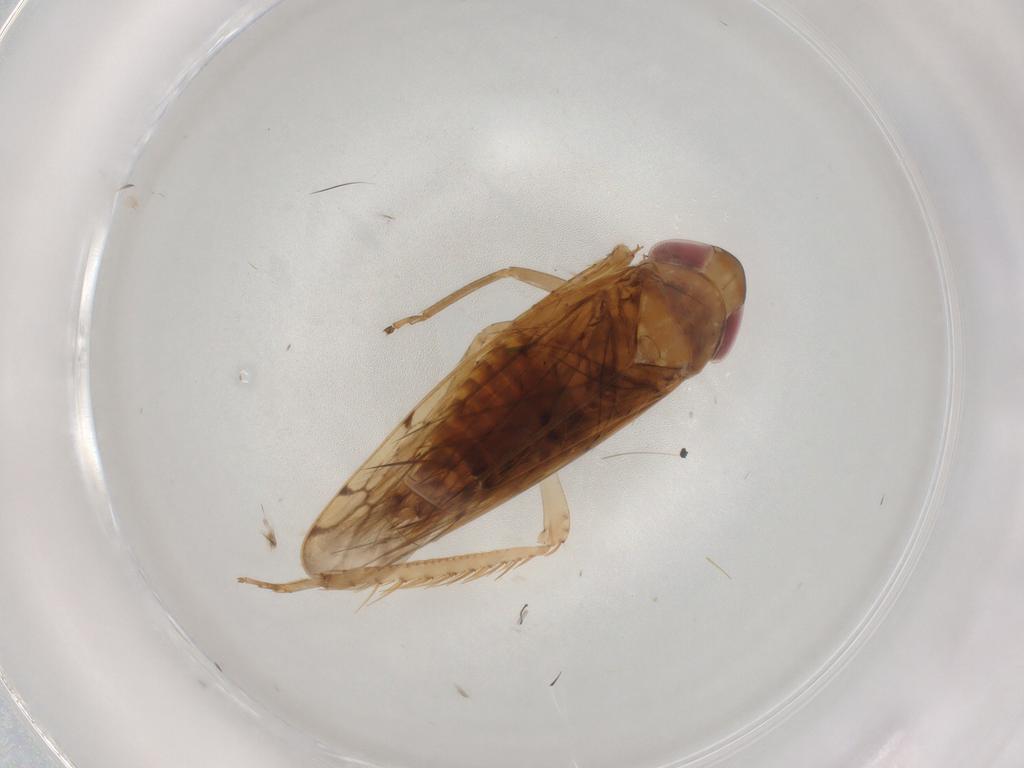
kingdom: Animalia
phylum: Arthropoda
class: Insecta
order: Hemiptera
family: Cicadellidae
